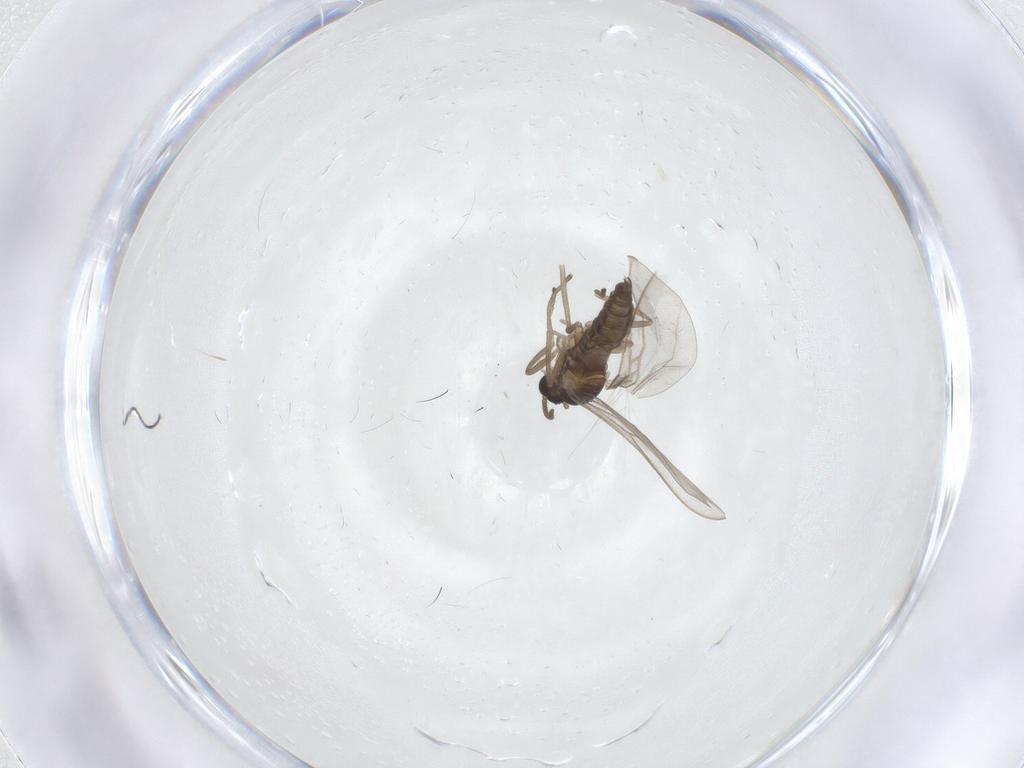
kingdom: Animalia
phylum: Arthropoda
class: Insecta
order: Diptera
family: Cecidomyiidae
